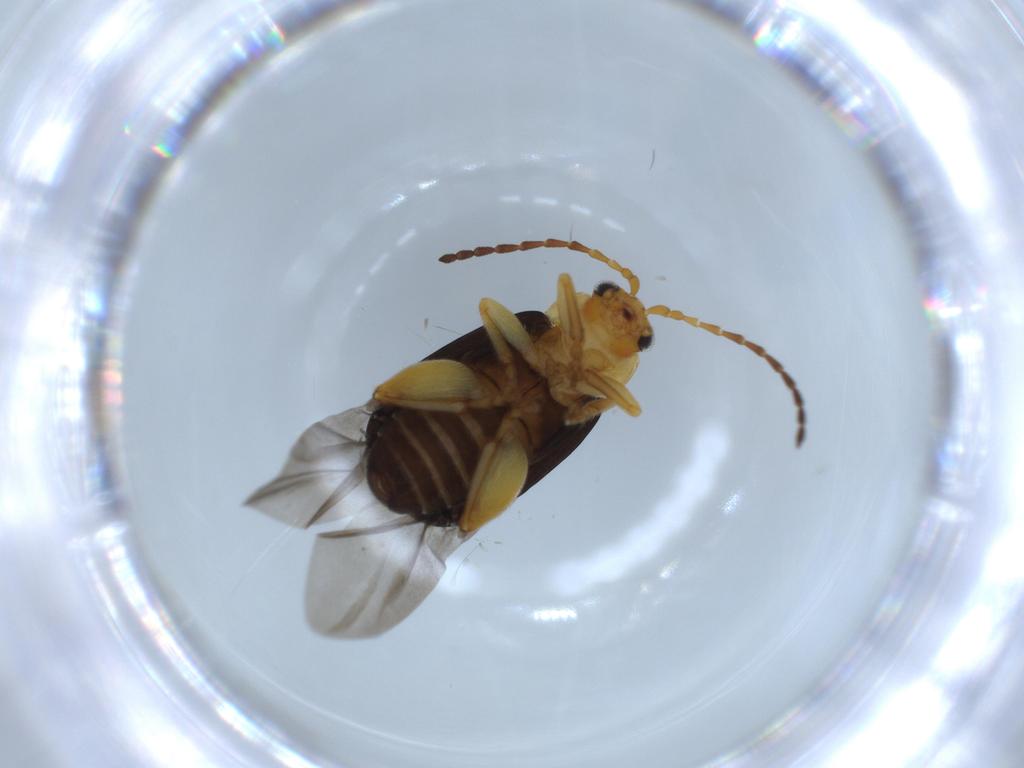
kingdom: Animalia
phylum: Arthropoda
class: Insecta
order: Coleoptera
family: Chrysomelidae
